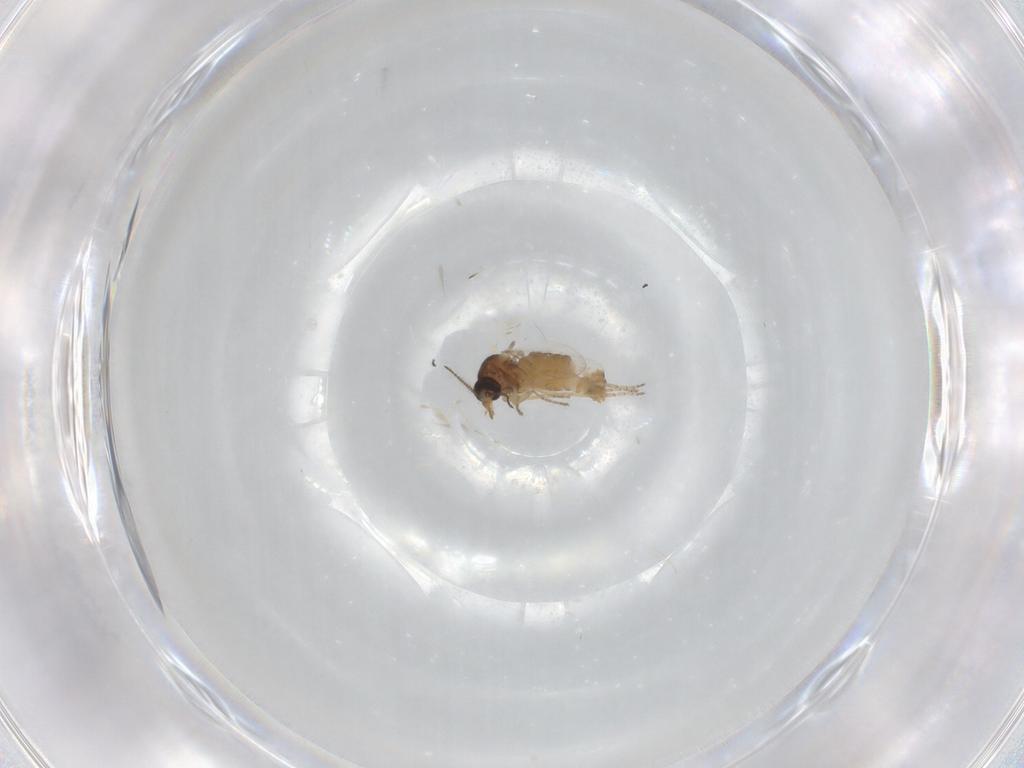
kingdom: Animalia
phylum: Arthropoda
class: Insecta
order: Diptera
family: Ceratopogonidae
